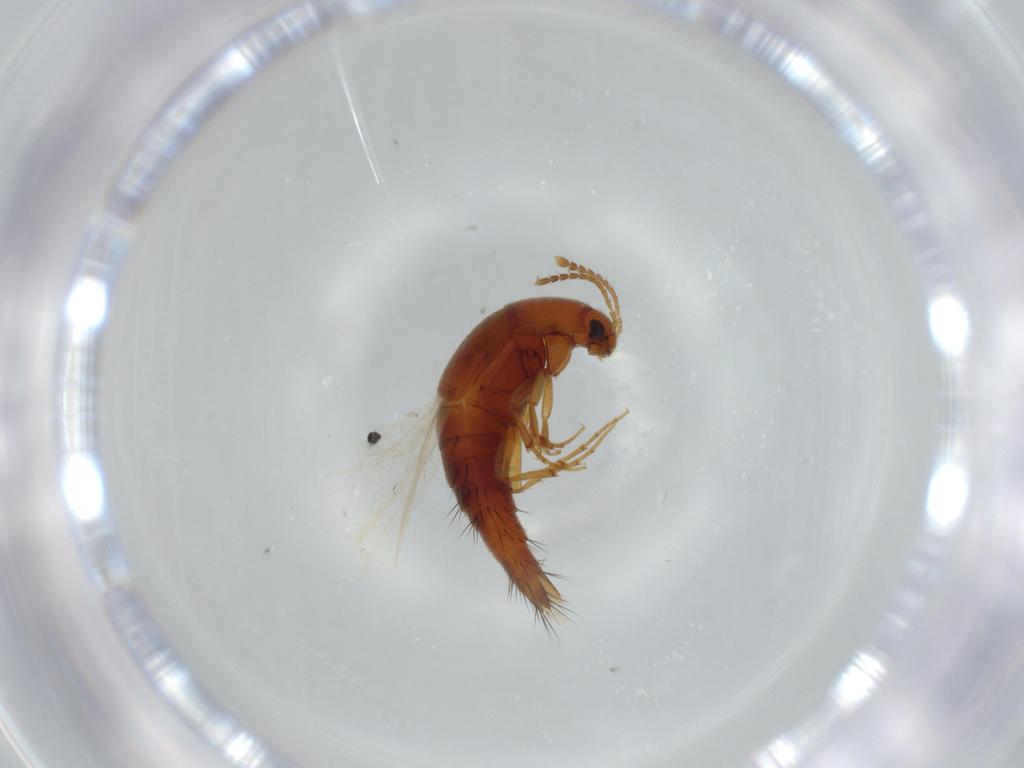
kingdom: Animalia
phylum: Arthropoda
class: Insecta
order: Coleoptera
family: Staphylinidae
